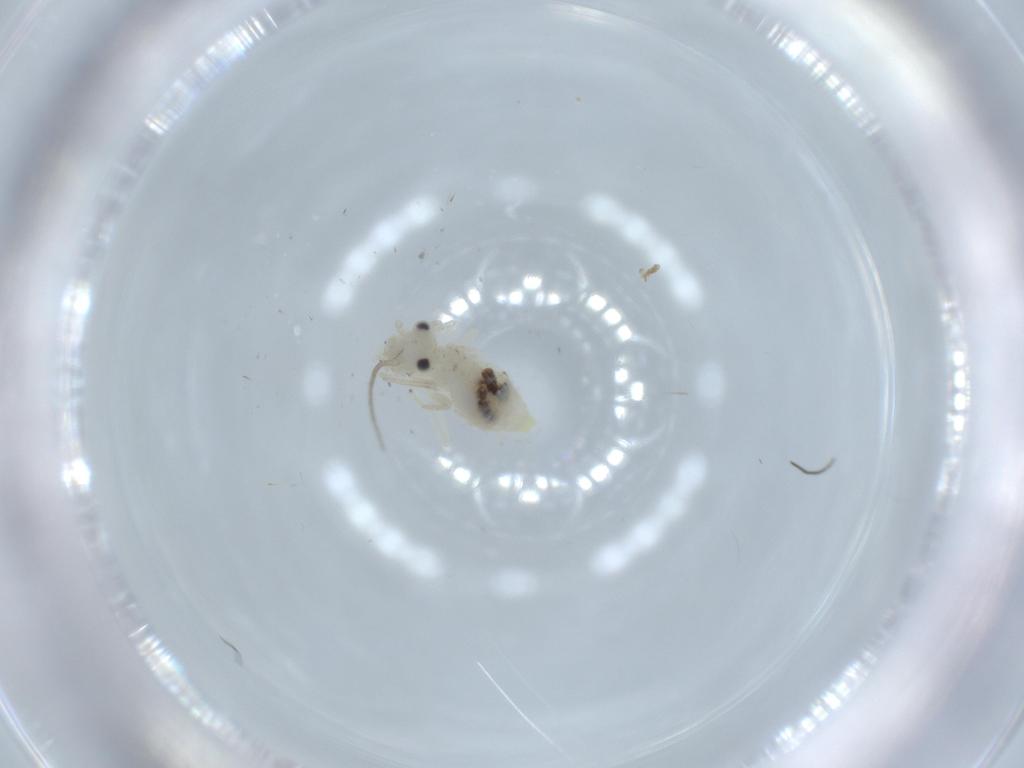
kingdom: Animalia
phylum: Arthropoda
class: Insecta
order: Psocodea
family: Caeciliusidae
